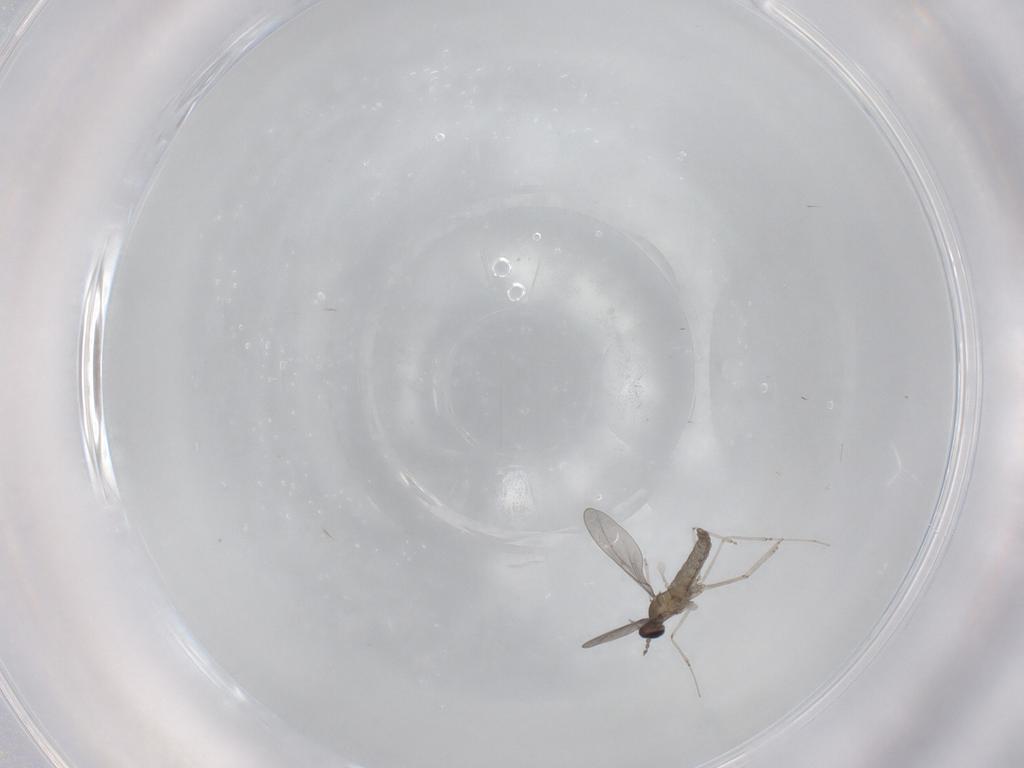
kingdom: Animalia
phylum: Arthropoda
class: Insecta
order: Diptera
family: Cecidomyiidae
